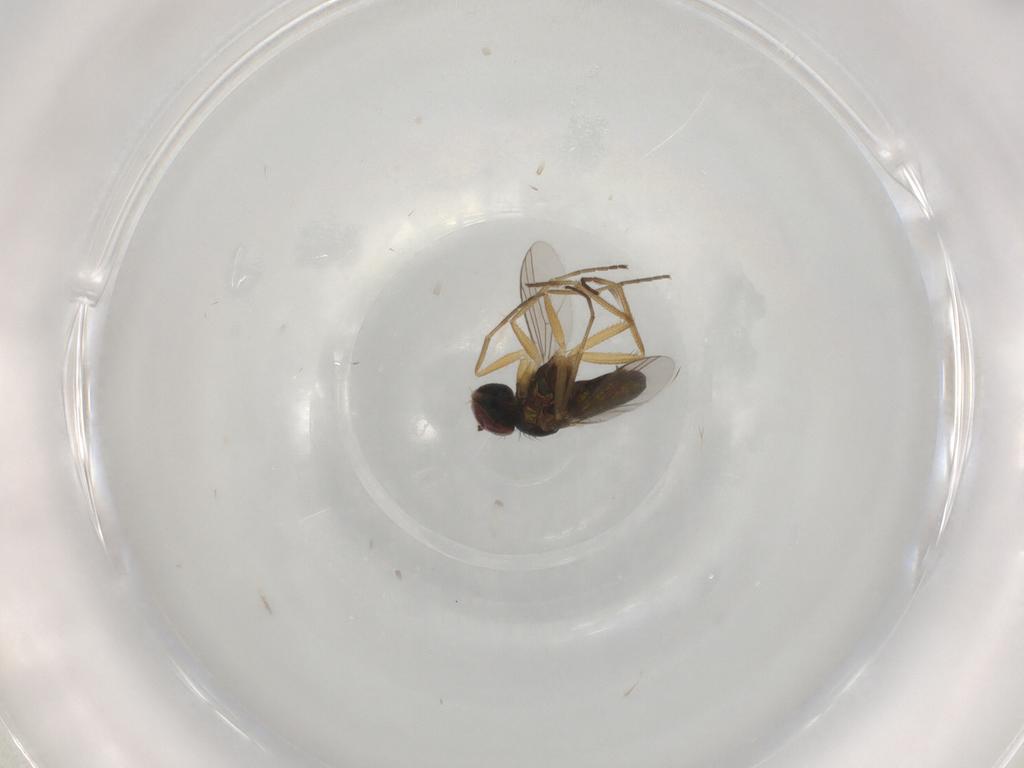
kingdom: Animalia
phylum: Arthropoda
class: Insecta
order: Diptera
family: Dolichopodidae
